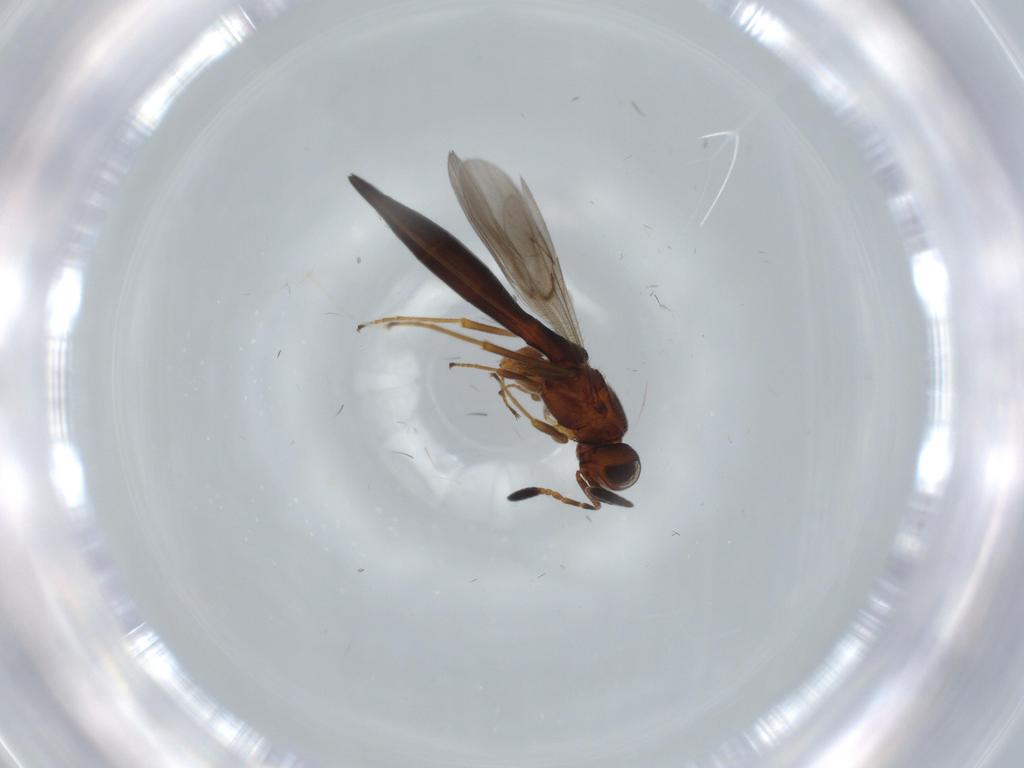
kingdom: Animalia
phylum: Arthropoda
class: Insecta
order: Hymenoptera
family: Scelionidae
